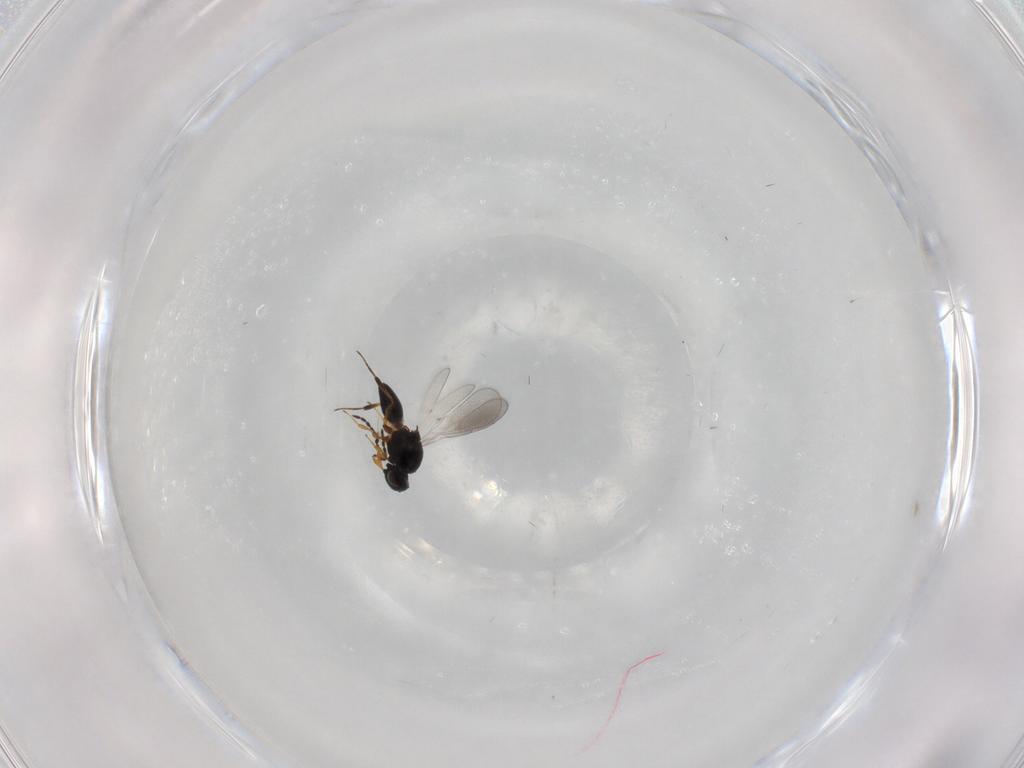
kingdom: Animalia
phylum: Arthropoda
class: Insecta
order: Hymenoptera
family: Platygastridae
